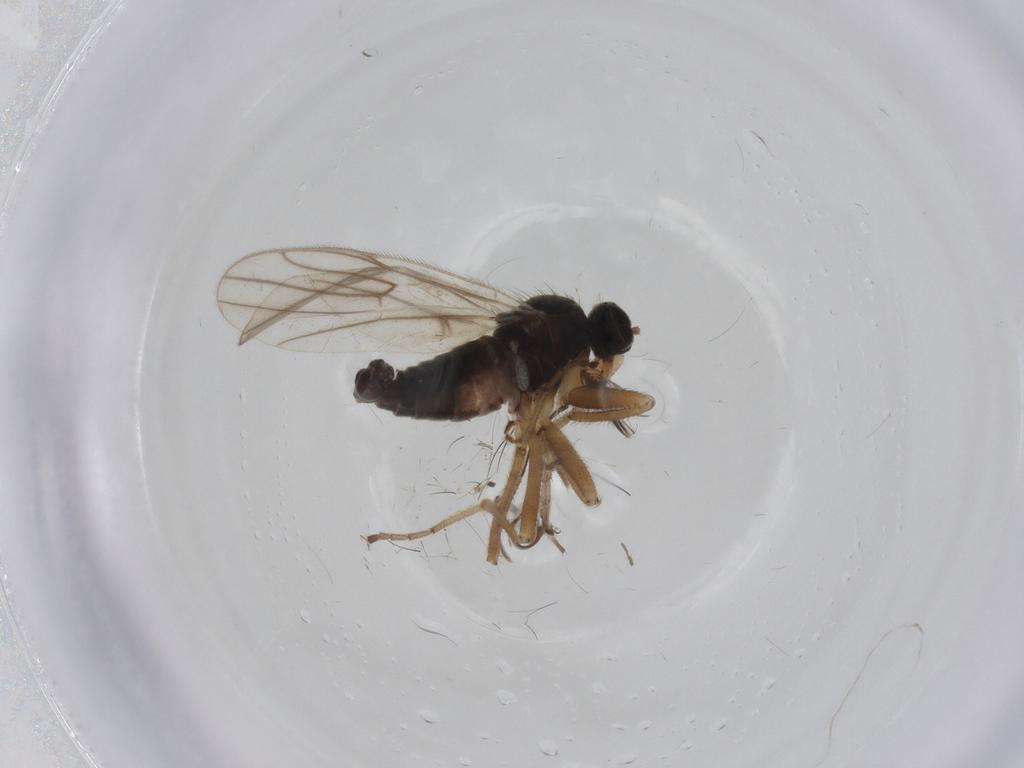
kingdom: Animalia
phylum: Arthropoda
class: Insecta
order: Diptera
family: Hybotidae
